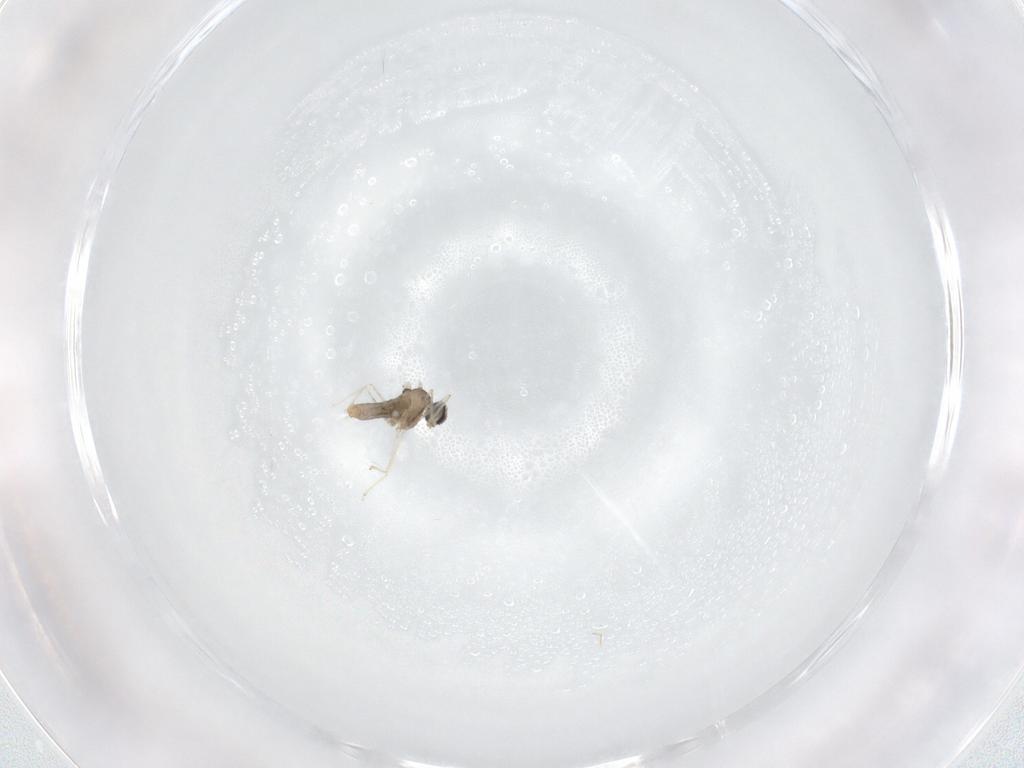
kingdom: Animalia
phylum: Arthropoda
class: Insecta
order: Diptera
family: Cecidomyiidae
